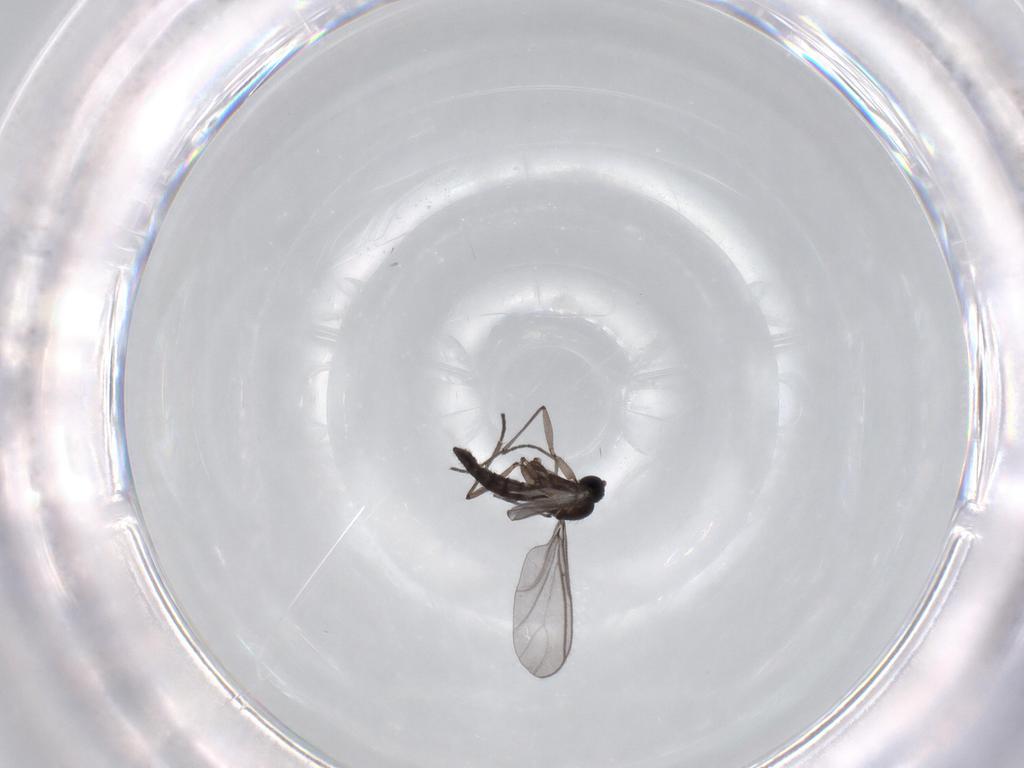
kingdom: Animalia
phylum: Arthropoda
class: Insecta
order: Diptera
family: Sciaridae
